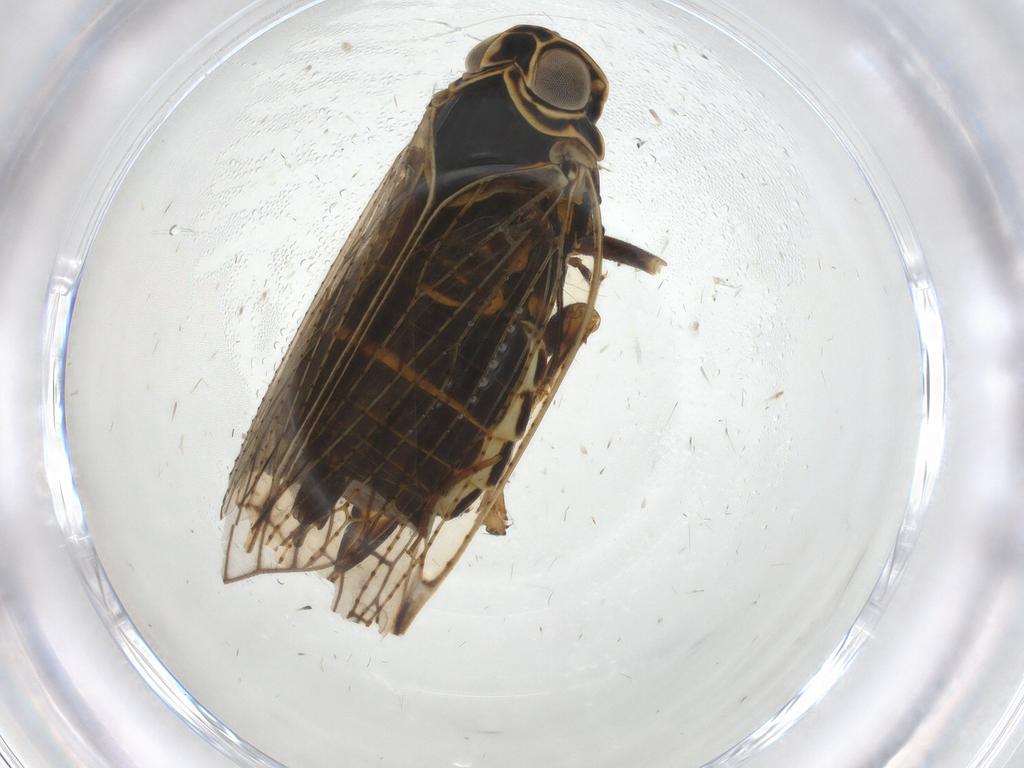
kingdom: Animalia
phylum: Arthropoda
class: Insecta
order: Hemiptera
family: Cixiidae
